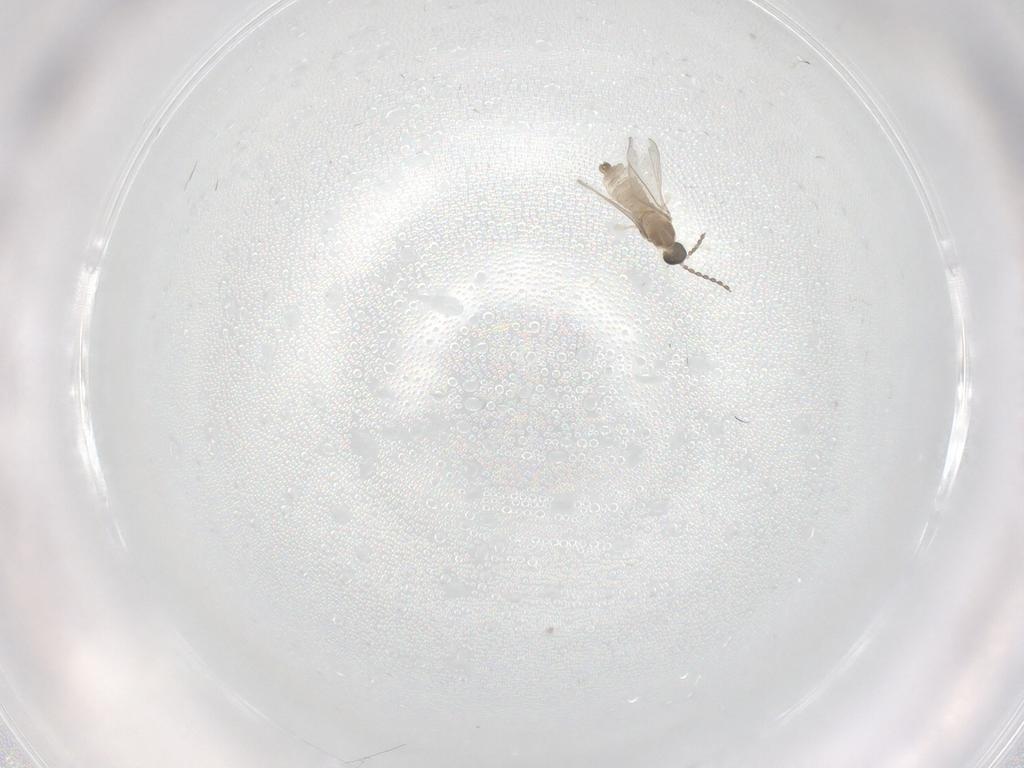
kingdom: Animalia
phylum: Arthropoda
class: Insecta
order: Diptera
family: Cecidomyiidae
